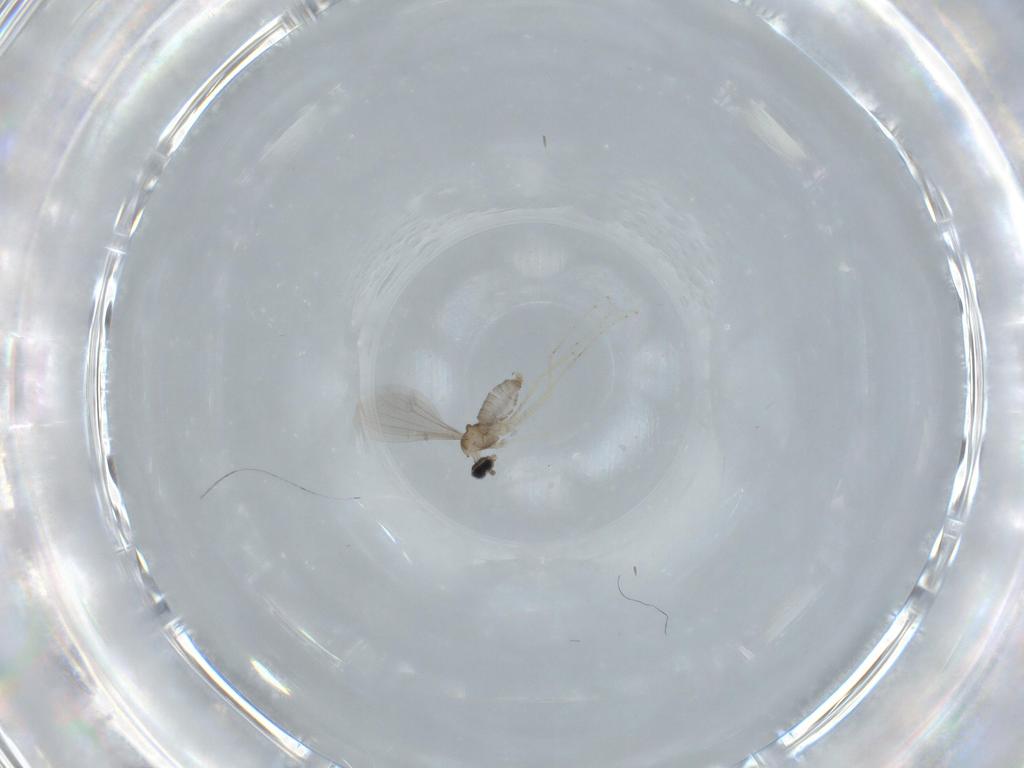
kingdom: Animalia
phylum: Arthropoda
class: Insecta
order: Diptera
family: Cecidomyiidae
